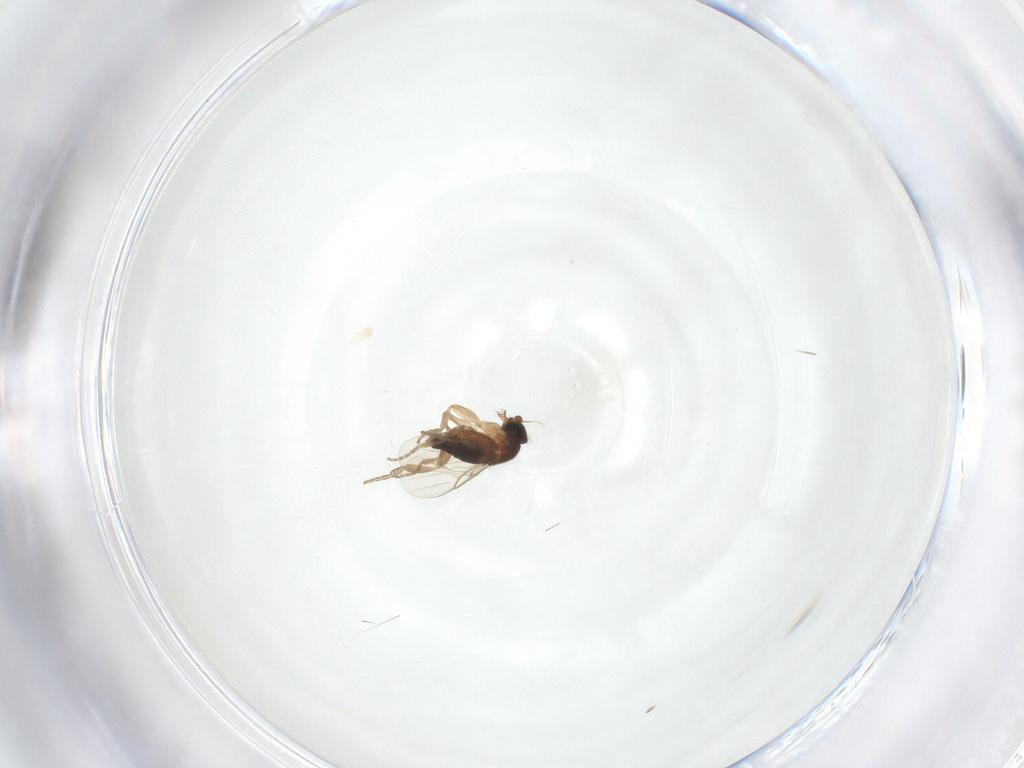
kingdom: Animalia
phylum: Arthropoda
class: Insecta
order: Diptera
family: Phoridae
